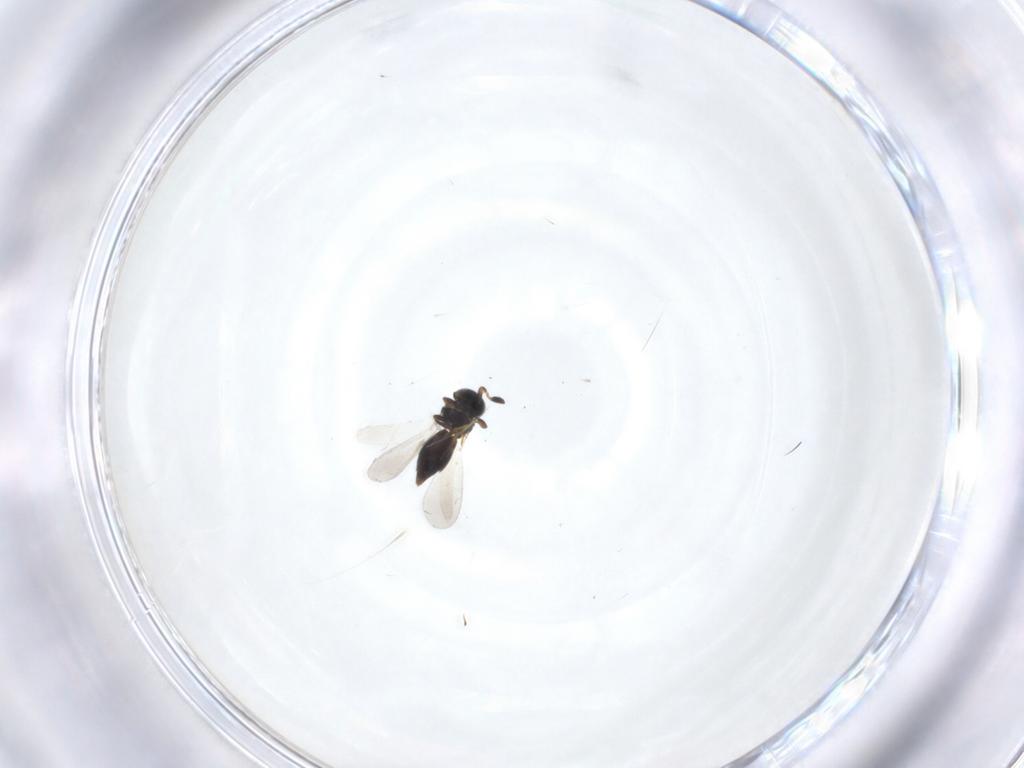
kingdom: Animalia
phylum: Arthropoda
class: Insecta
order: Hymenoptera
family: Platygastridae
